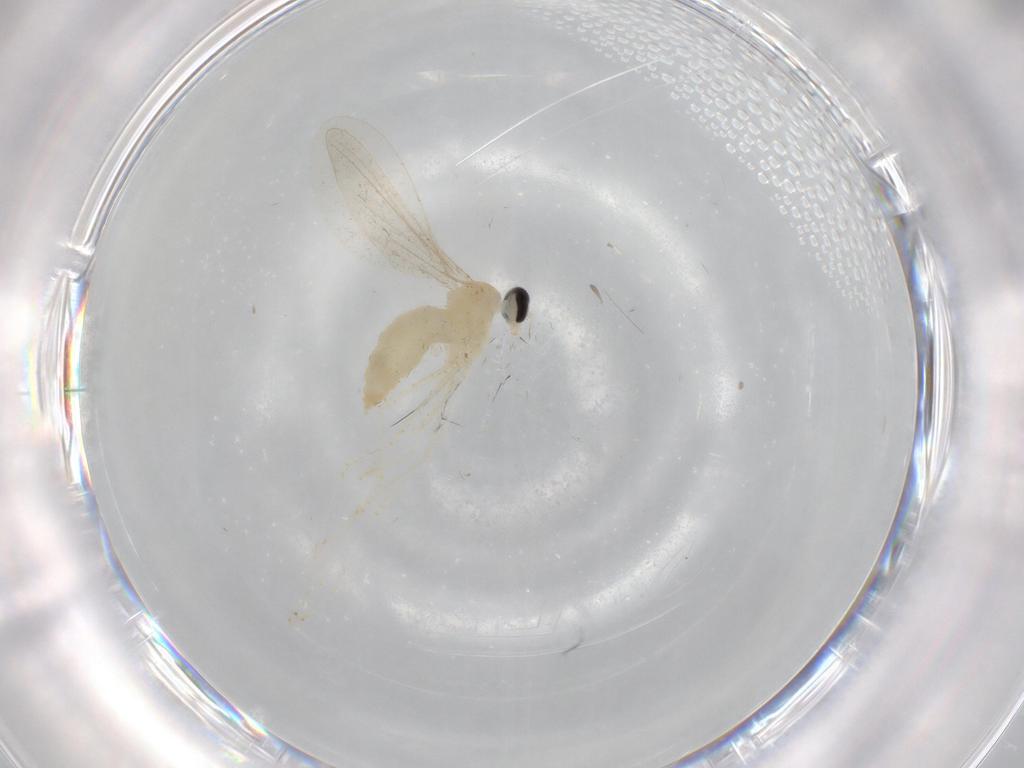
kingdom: Animalia
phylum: Arthropoda
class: Insecta
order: Diptera
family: Cecidomyiidae
